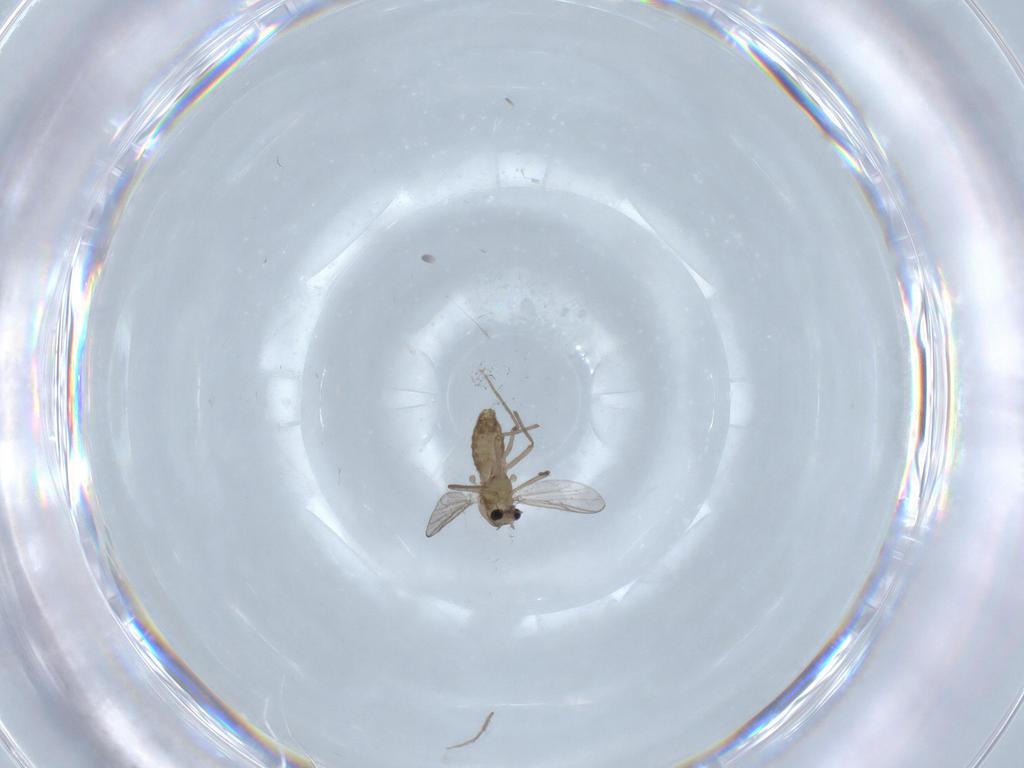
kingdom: Animalia
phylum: Arthropoda
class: Insecta
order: Diptera
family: Chironomidae
